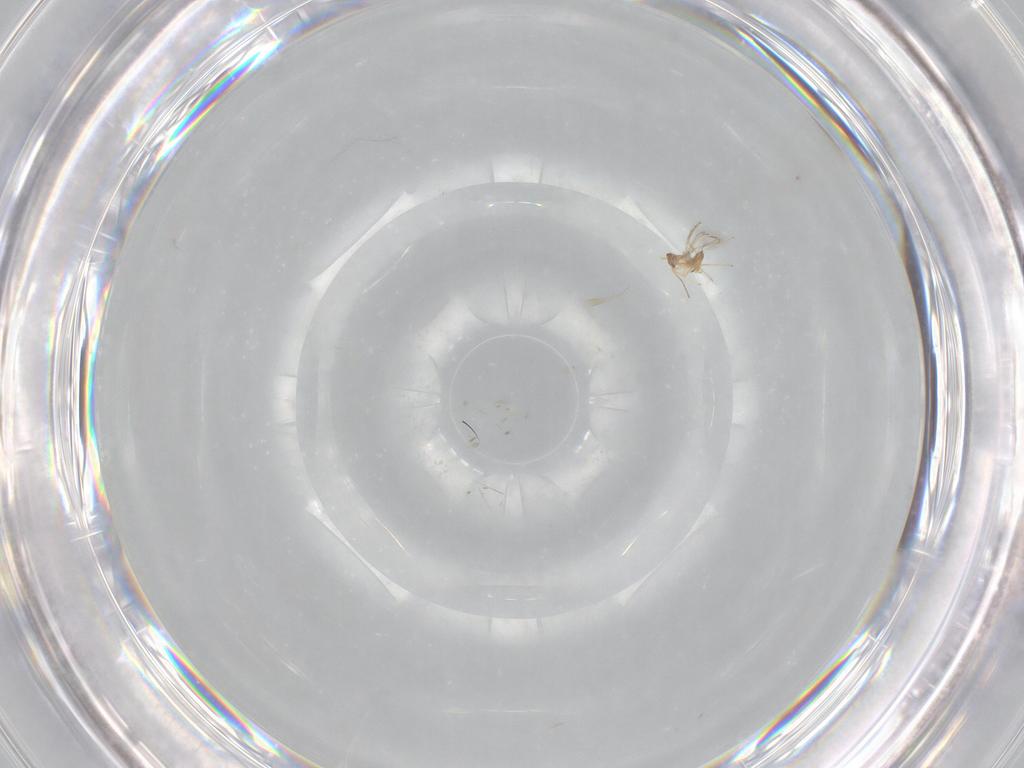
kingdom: Animalia
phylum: Arthropoda
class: Insecta
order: Hymenoptera
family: Mymaridae
